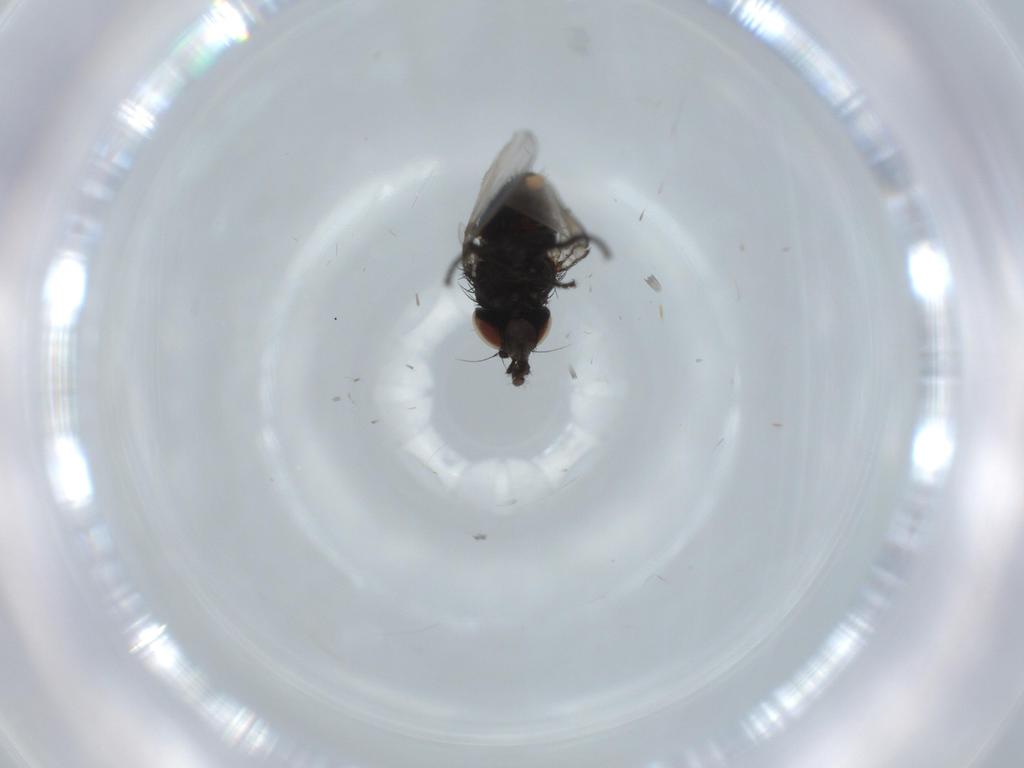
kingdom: Animalia
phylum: Arthropoda
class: Insecta
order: Diptera
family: Milichiidae
